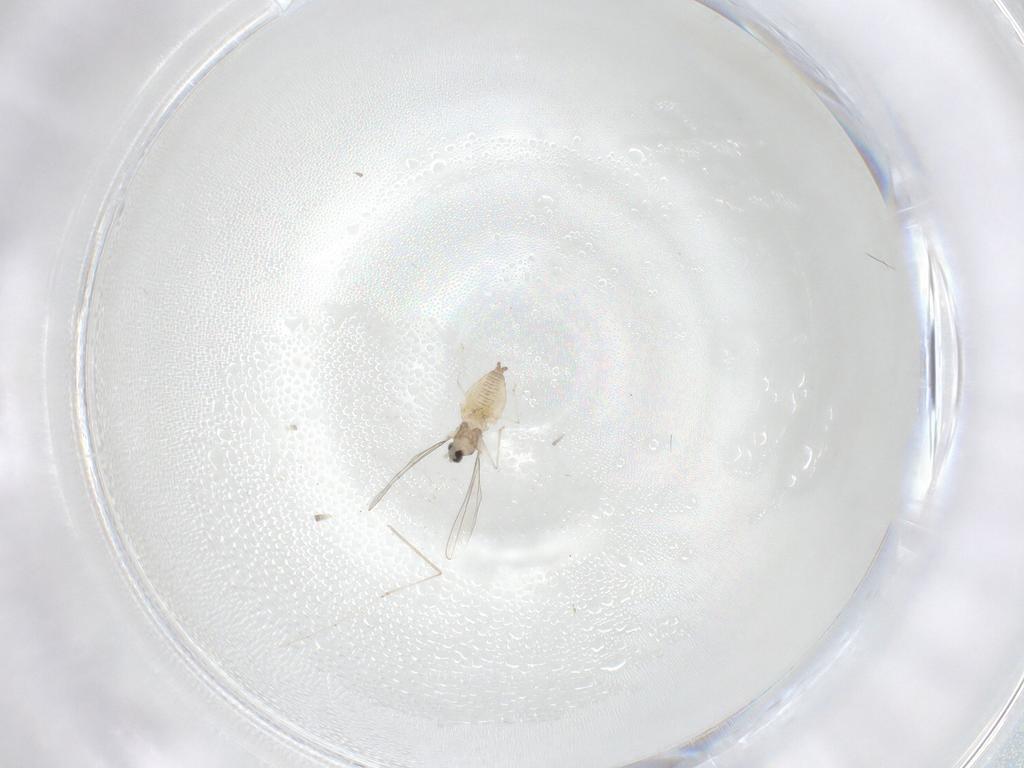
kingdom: Animalia
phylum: Arthropoda
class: Insecta
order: Diptera
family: Cecidomyiidae
